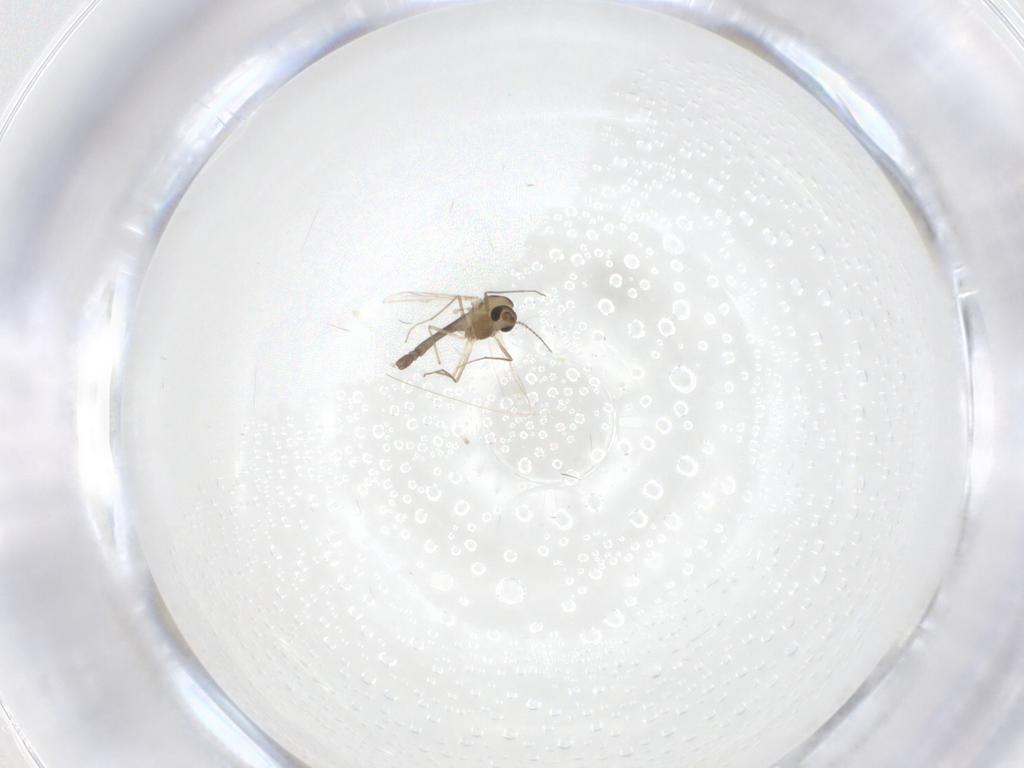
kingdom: Animalia
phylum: Arthropoda
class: Insecta
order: Diptera
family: Chironomidae
